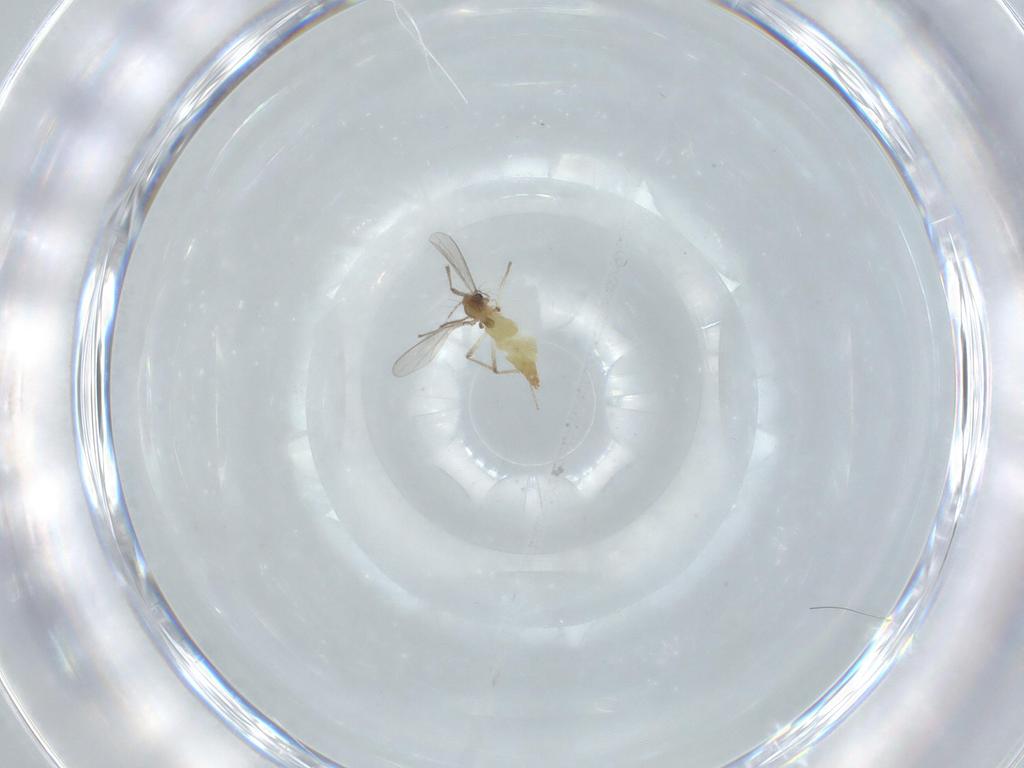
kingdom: Animalia
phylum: Arthropoda
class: Insecta
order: Diptera
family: Chironomidae
